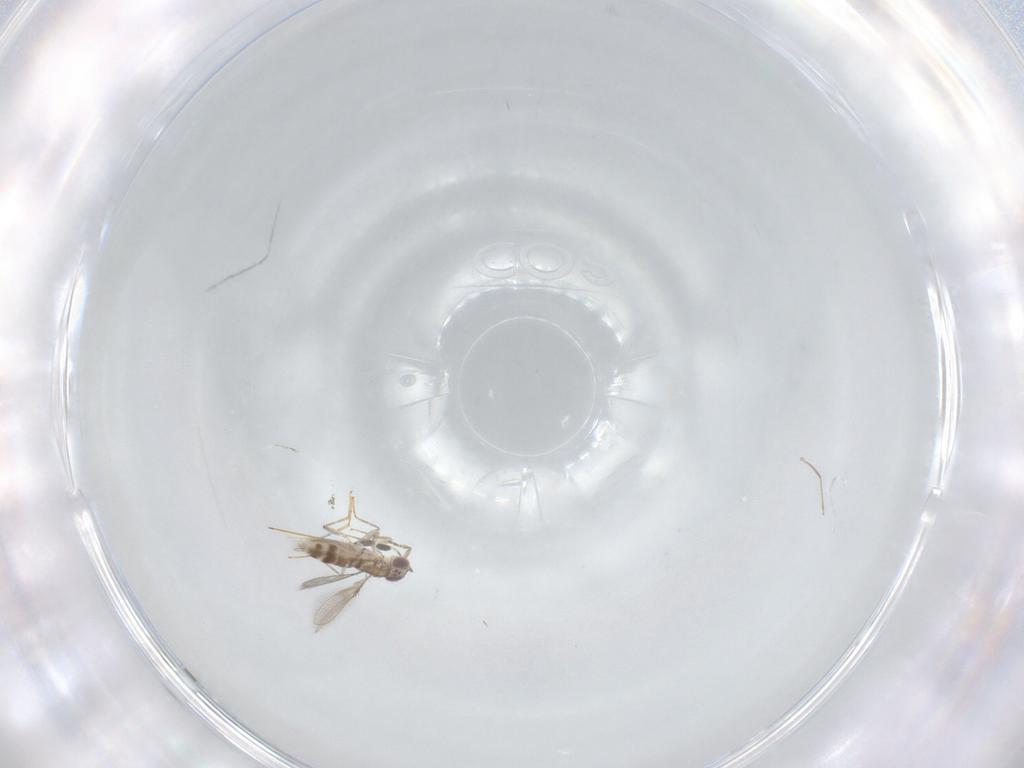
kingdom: Animalia
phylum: Arthropoda
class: Insecta
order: Hymenoptera
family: Mymaridae
